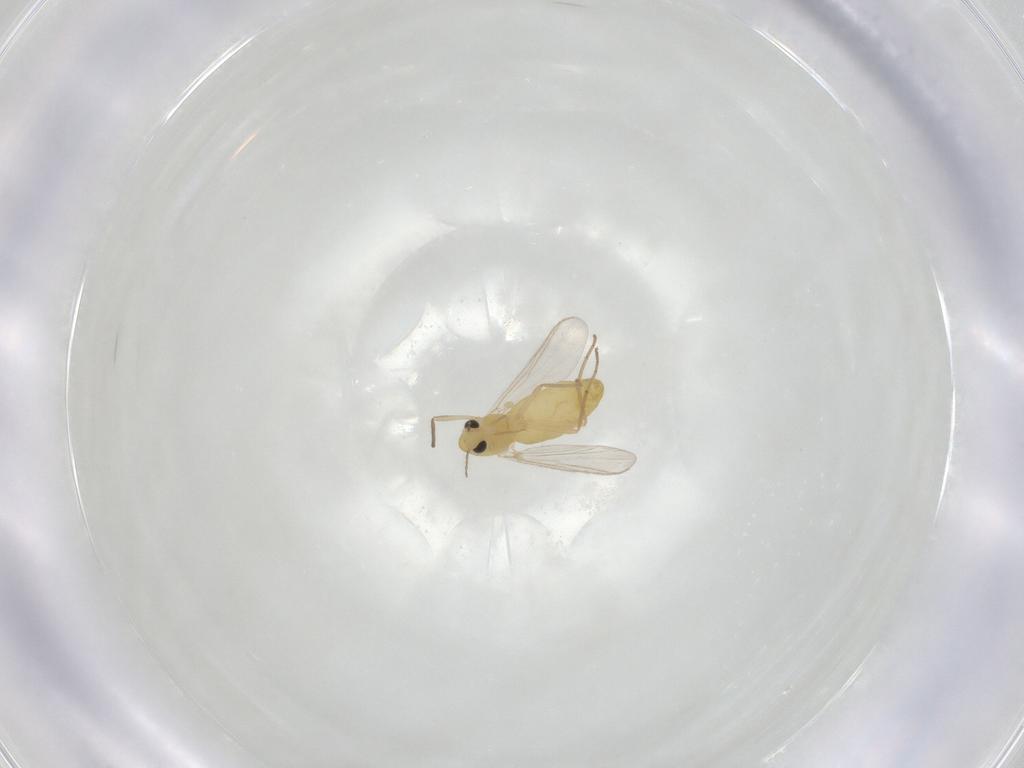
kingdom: Animalia
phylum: Arthropoda
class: Insecta
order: Diptera
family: Chironomidae
